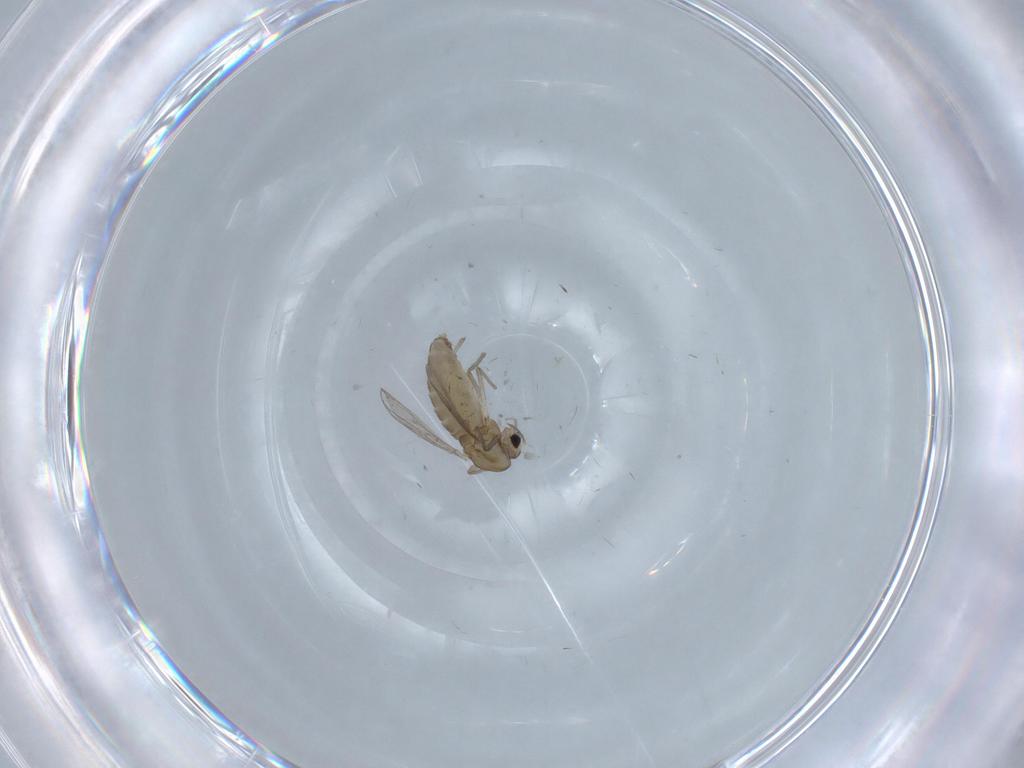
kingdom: Animalia
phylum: Arthropoda
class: Insecta
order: Diptera
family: Chironomidae
